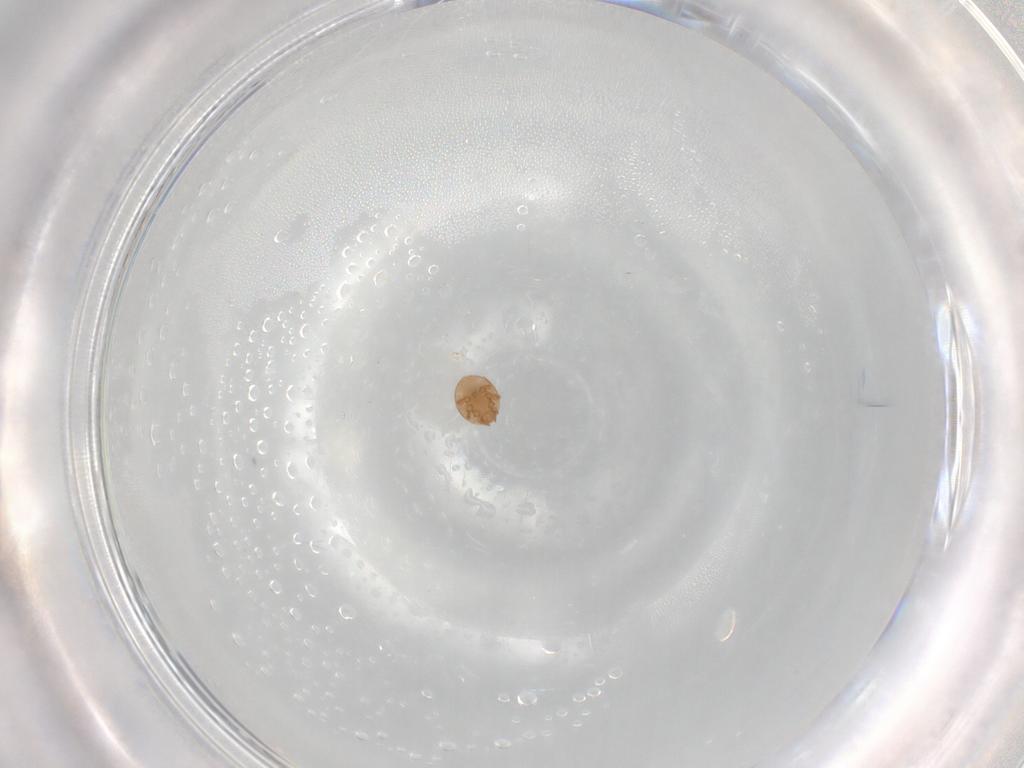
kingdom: Animalia
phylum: Arthropoda
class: Arachnida
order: Mesostigmata
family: Trematuridae
